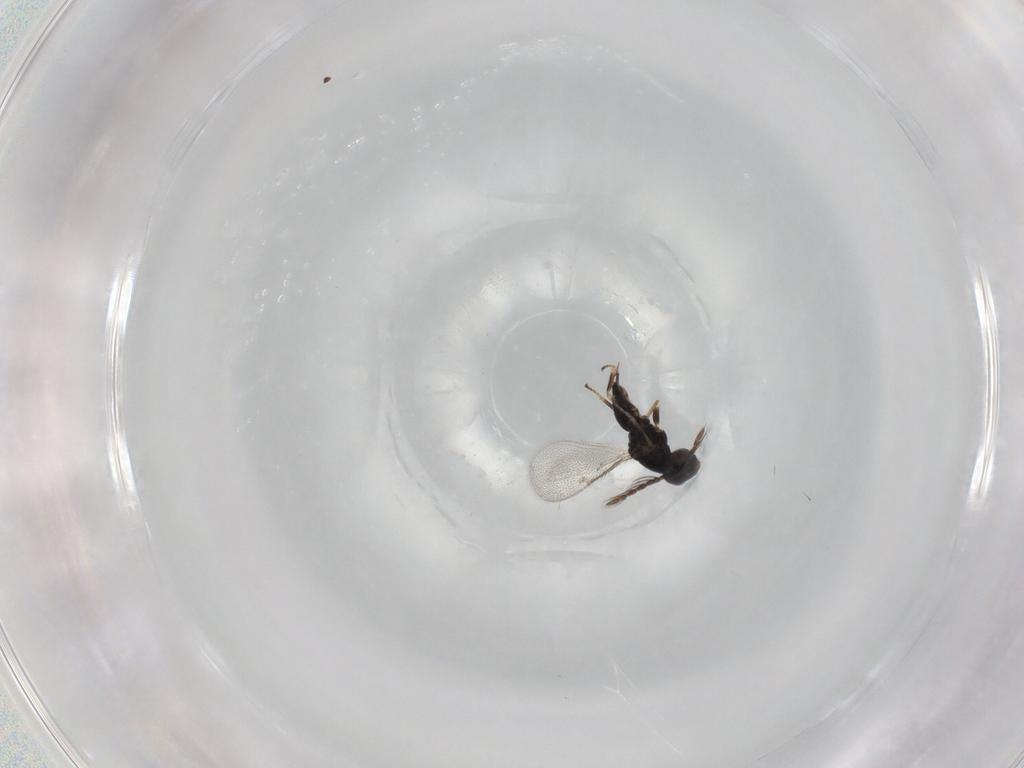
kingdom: Animalia
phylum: Arthropoda
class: Insecta
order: Hymenoptera
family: Eulophidae
